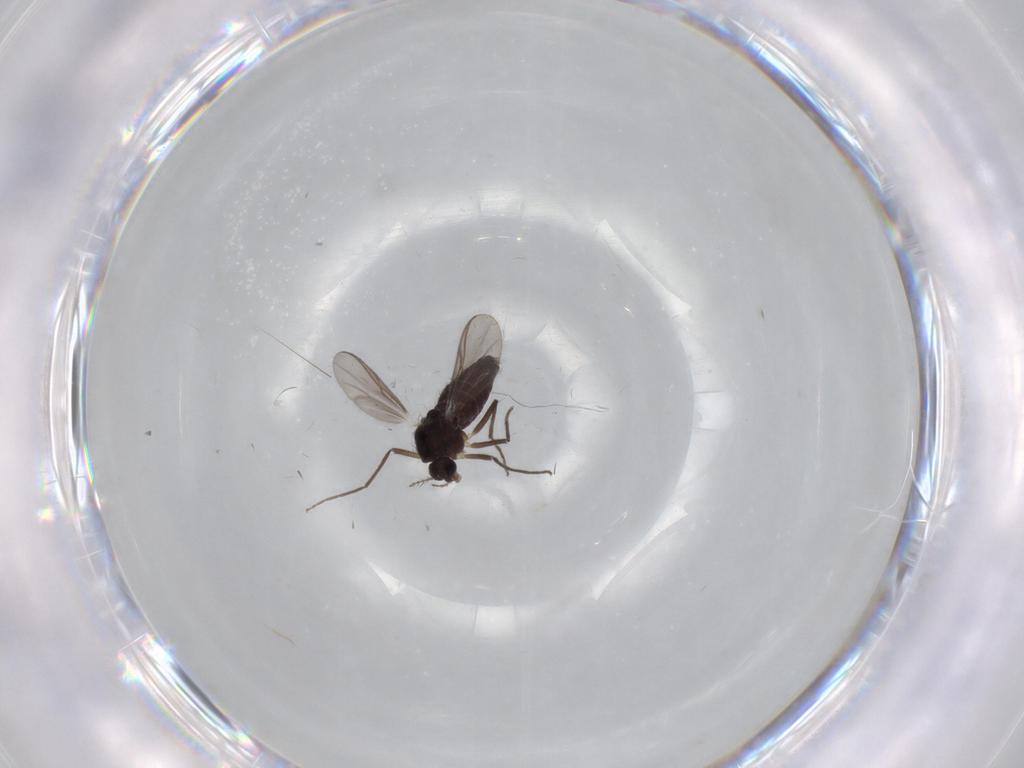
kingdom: Animalia
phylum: Arthropoda
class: Insecta
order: Diptera
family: Chironomidae
